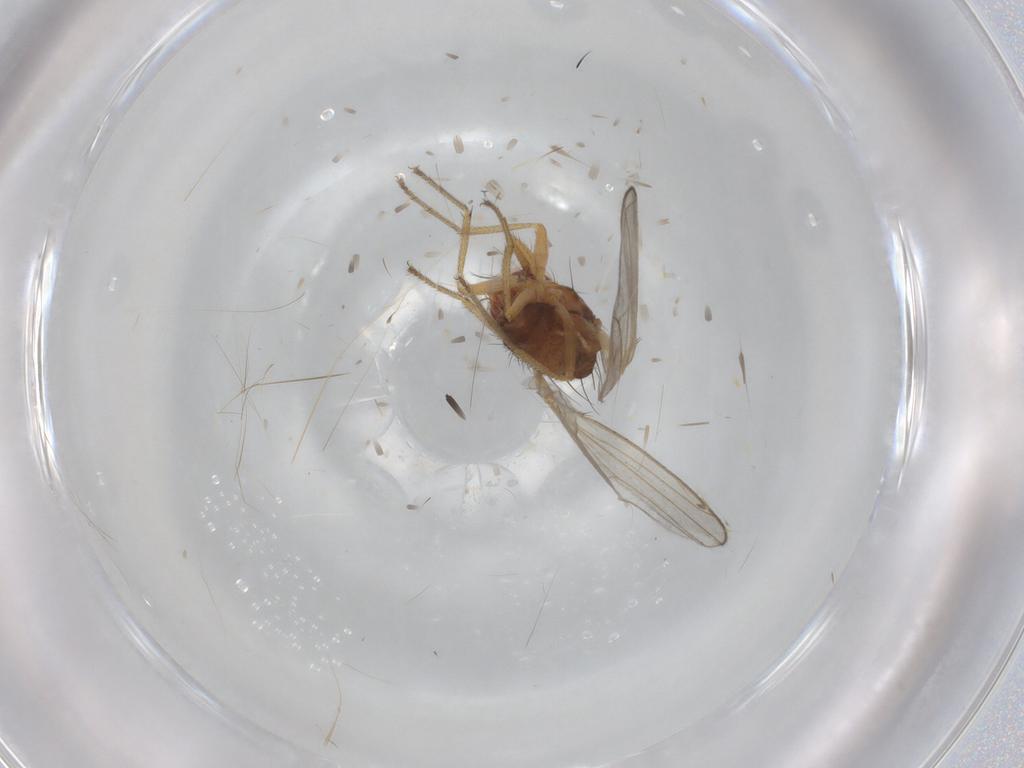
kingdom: Animalia
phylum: Arthropoda
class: Insecta
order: Diptera
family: Drosophilidae
